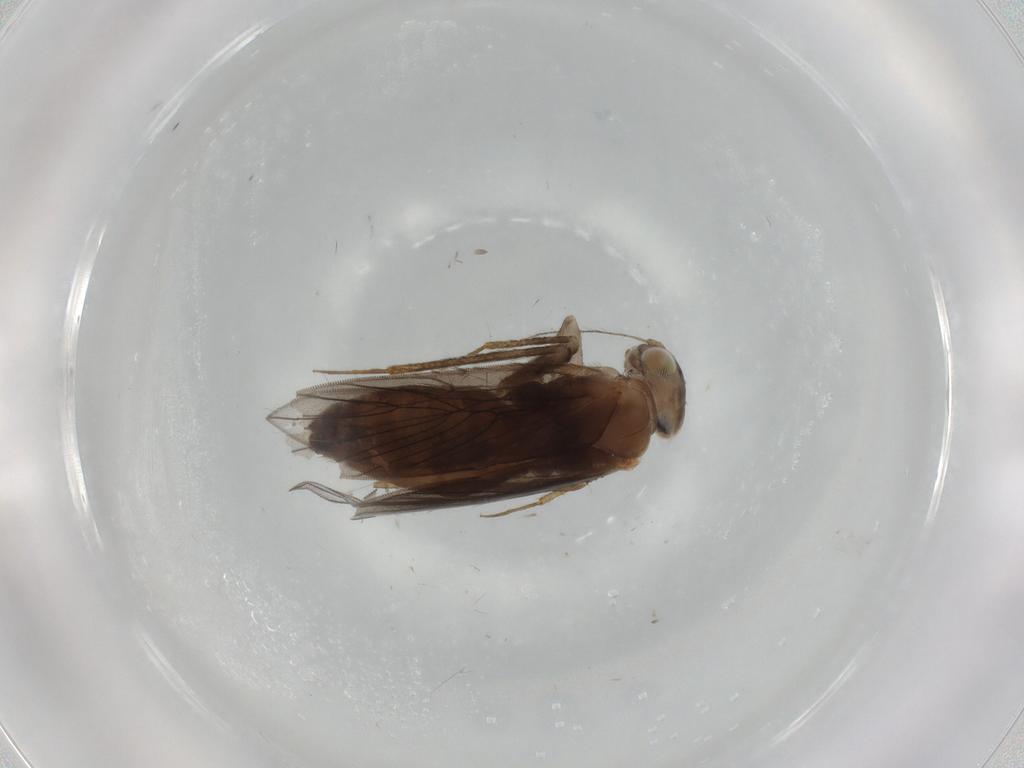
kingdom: Animalia
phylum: Arthropoda
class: Insecta
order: Psocodea
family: Lepidopsocidae
